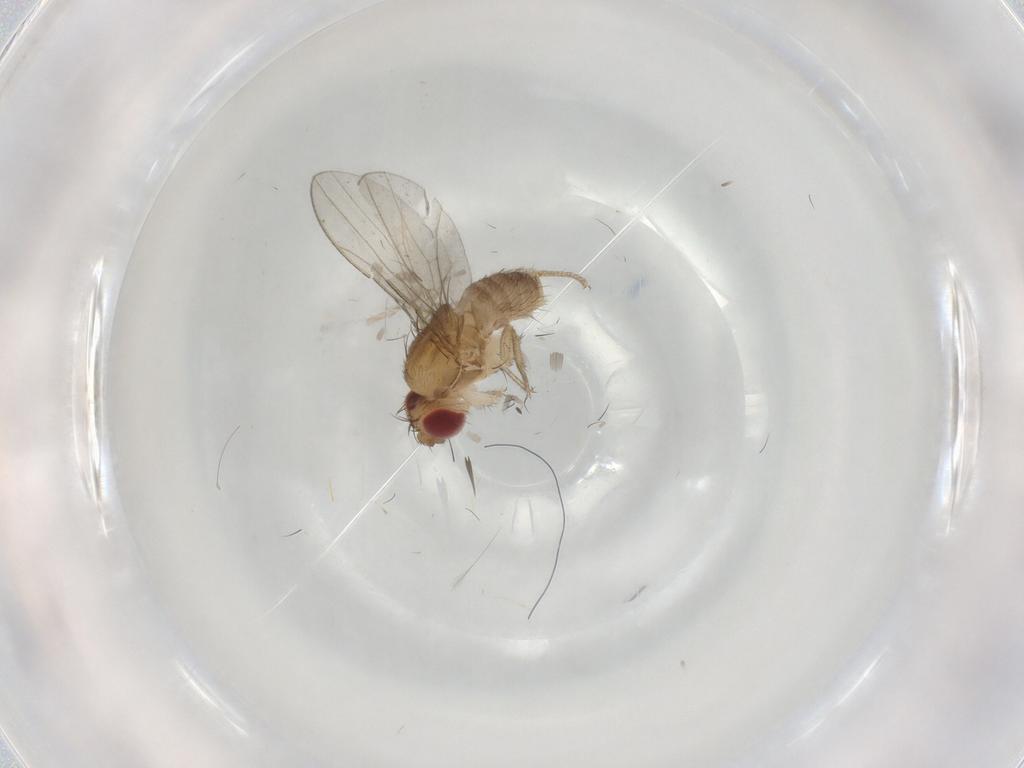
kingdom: Animalia
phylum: Arthropoda
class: Insecta
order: Diptera
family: Drosophilidae
